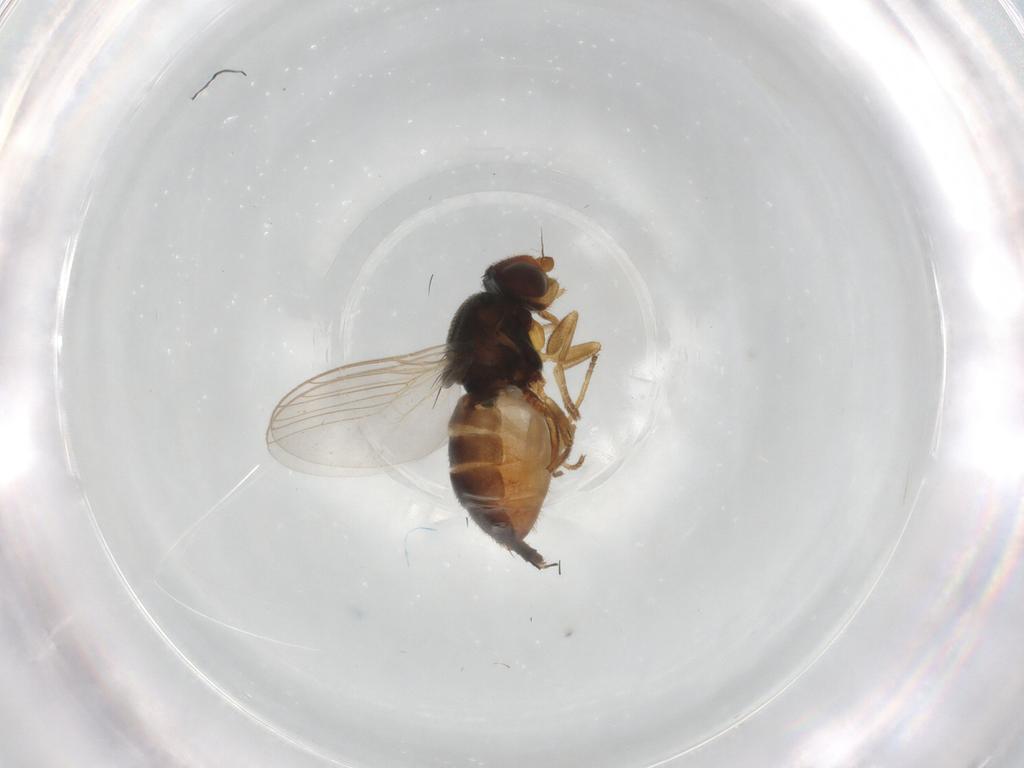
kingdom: Animalia
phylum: Arthropoda
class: Insecta
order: Diptera
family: Chloropidae
